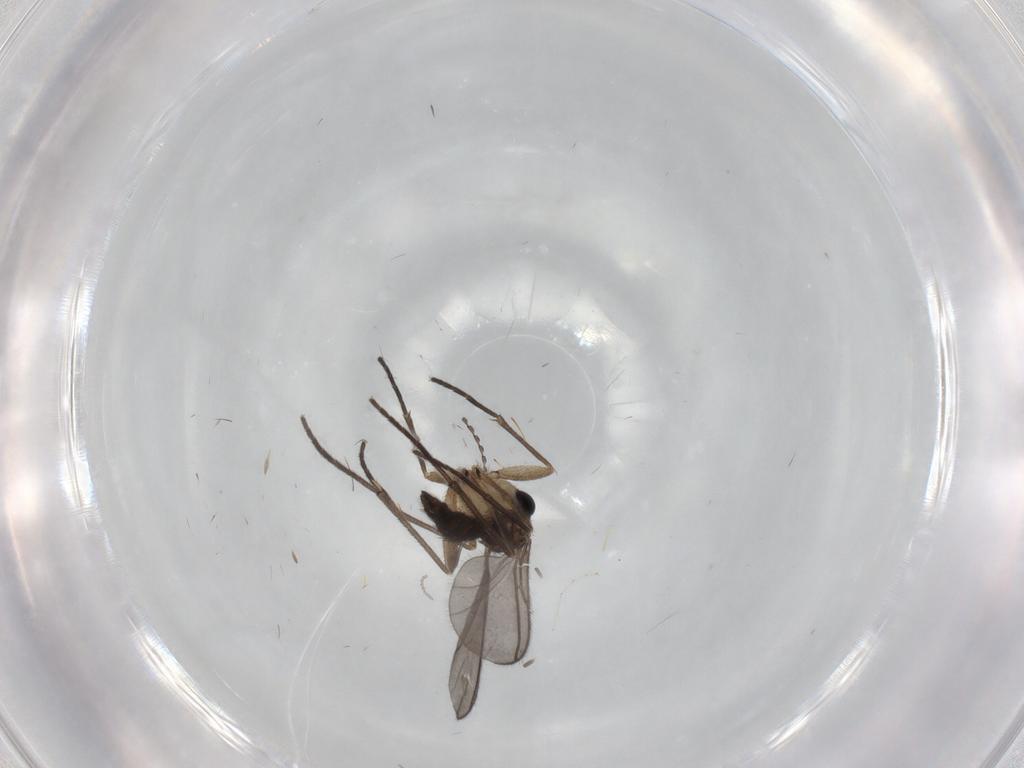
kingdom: Animalia
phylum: Arthropoda
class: Insecta
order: Diptera
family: Sciaridae
